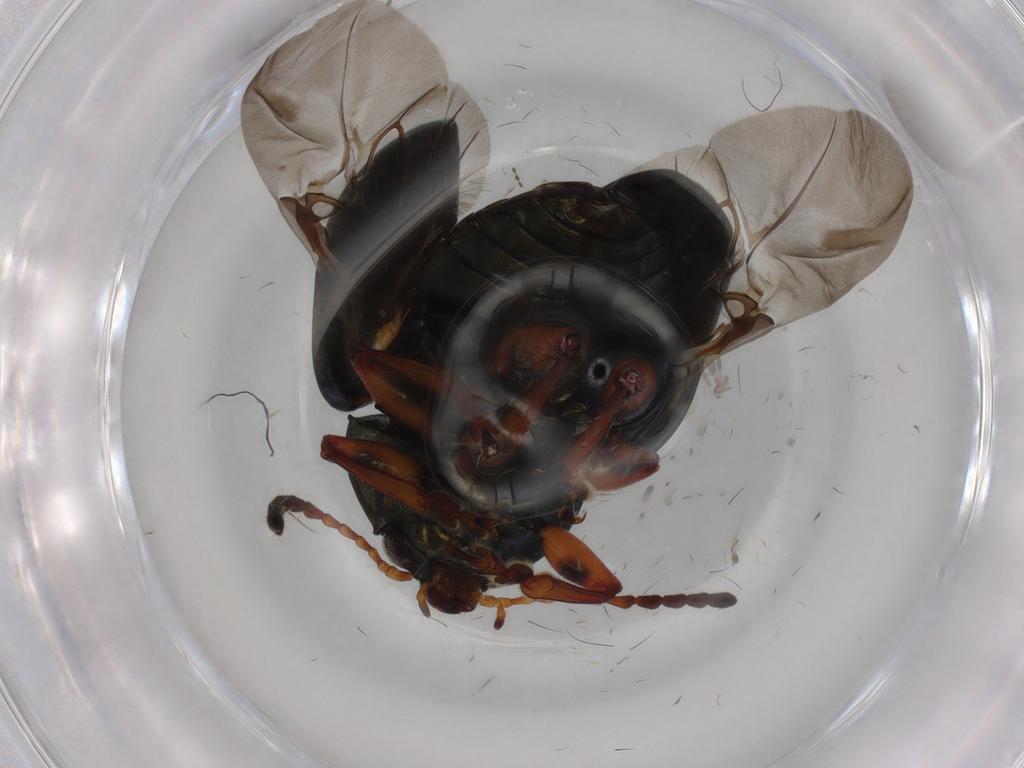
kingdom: Animalia
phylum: Arthropoda
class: Insecta
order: Coleoptera
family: Chrysomelidae
